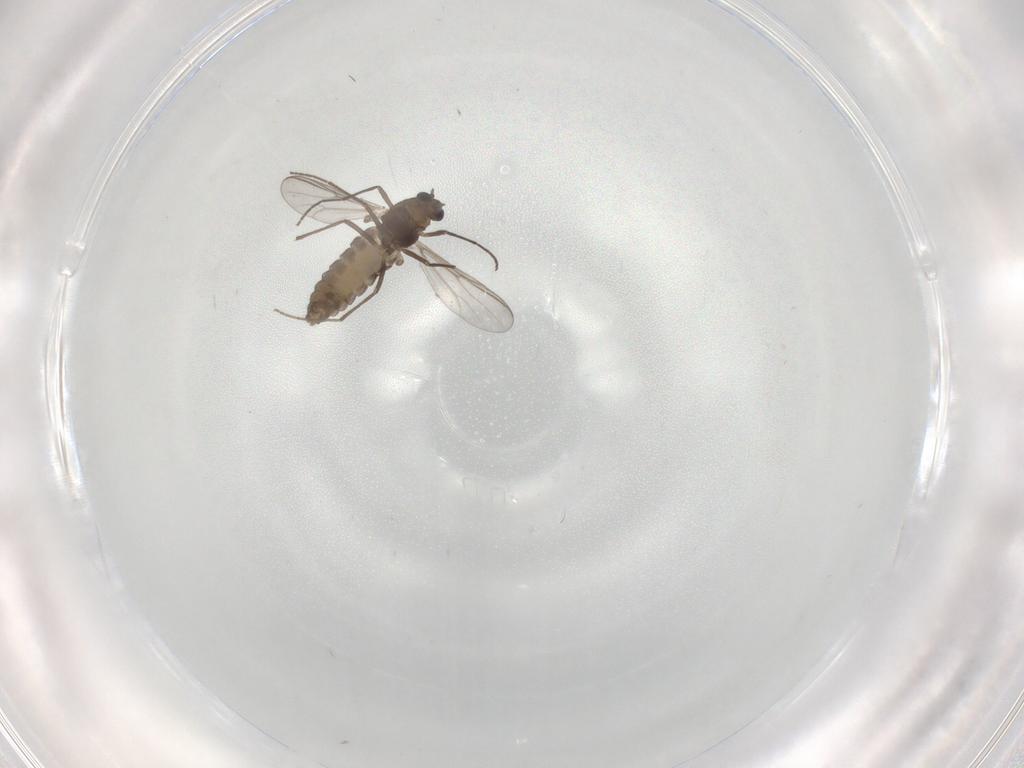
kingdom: Animalia
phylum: Arthropoda
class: Insecta
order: Diptera
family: Chironomidae
